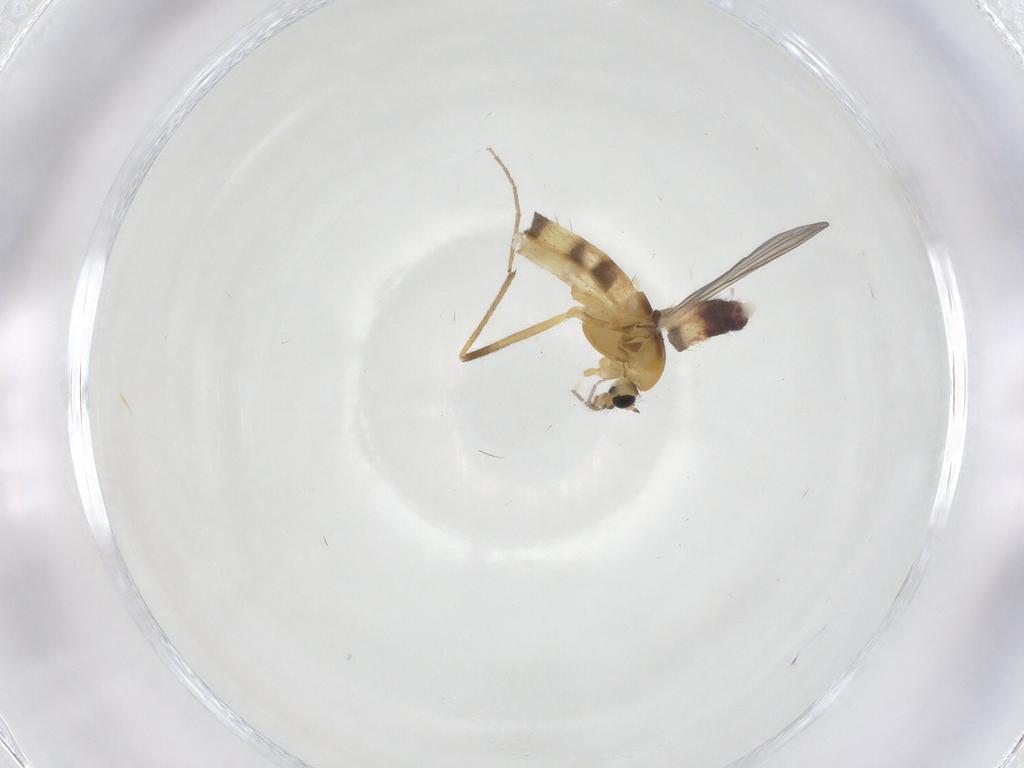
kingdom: Animalia
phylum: Arthropoda
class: Insecta
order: Diptera
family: Chironomidae
